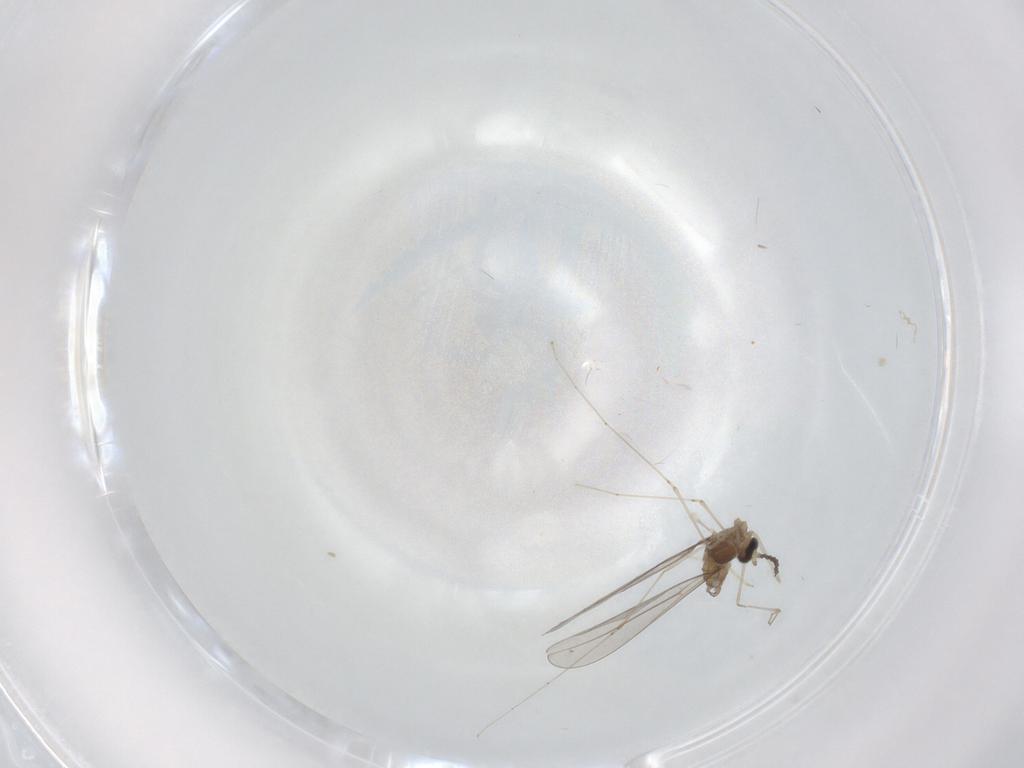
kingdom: Animalia
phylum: Arthropoda
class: Insecta
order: Diptera
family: Cecidomyiidae
